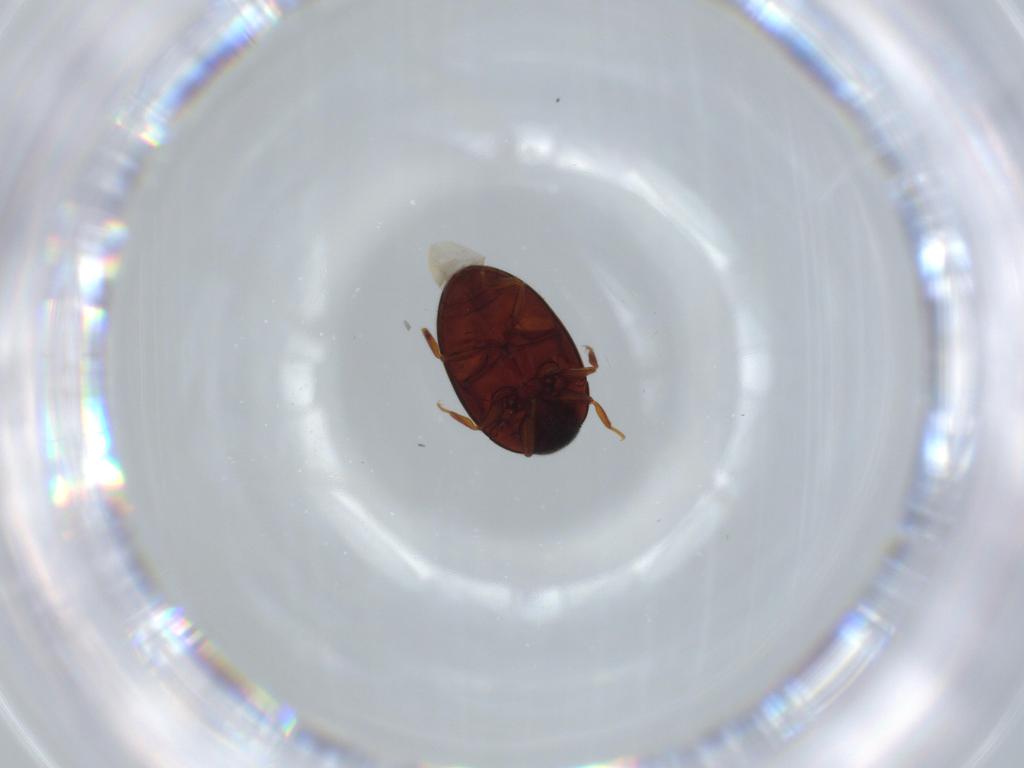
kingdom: Animalia
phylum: Arthropoda
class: Insecta
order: Coleoptera
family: Limnichidae
